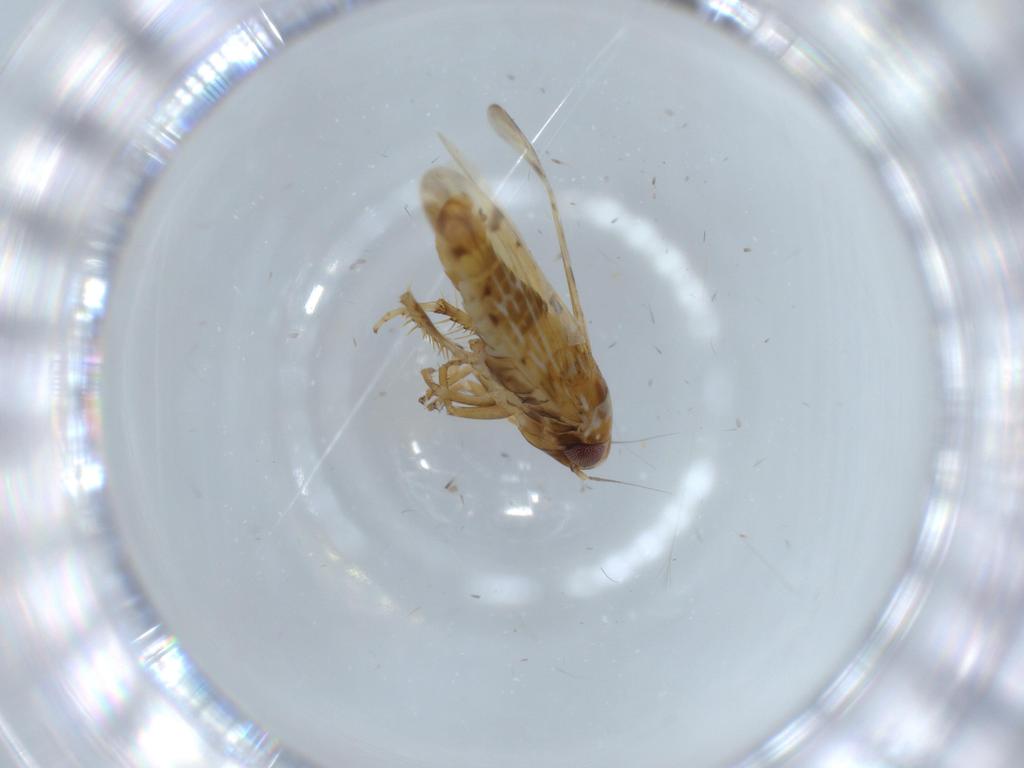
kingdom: Animalia
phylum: Arthropoda
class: Insecta
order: Hemiptera
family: Cicadellidae
